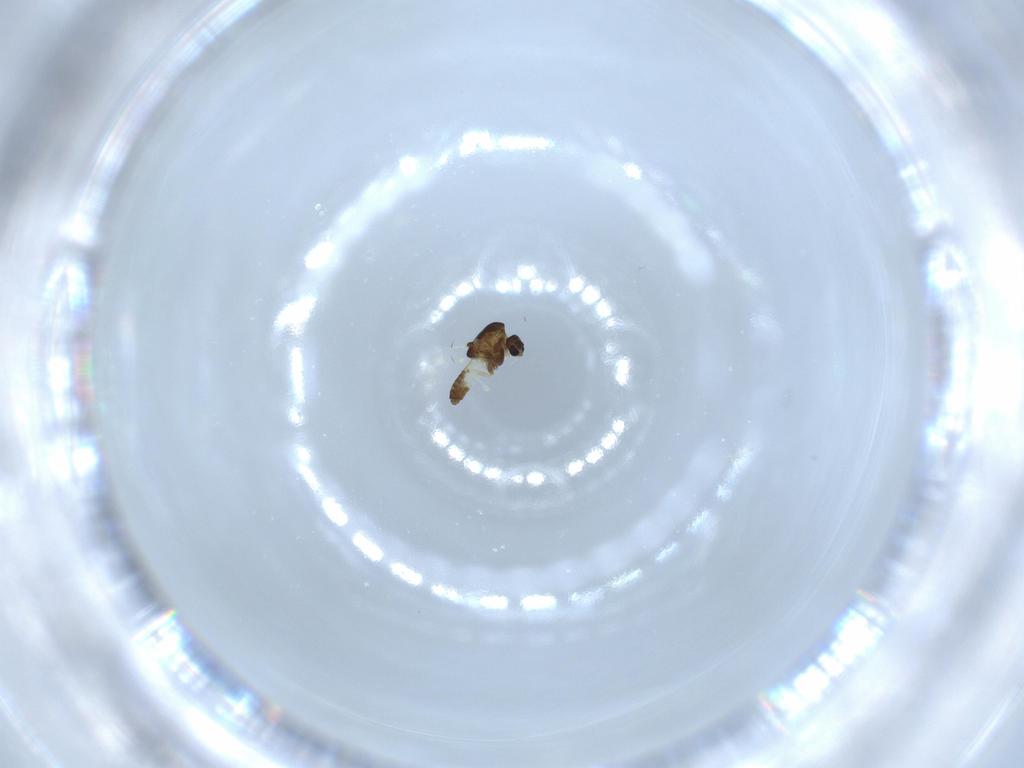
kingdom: Animalia
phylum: Arthropoda
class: Insecta
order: Diptera
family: Chironomidae
